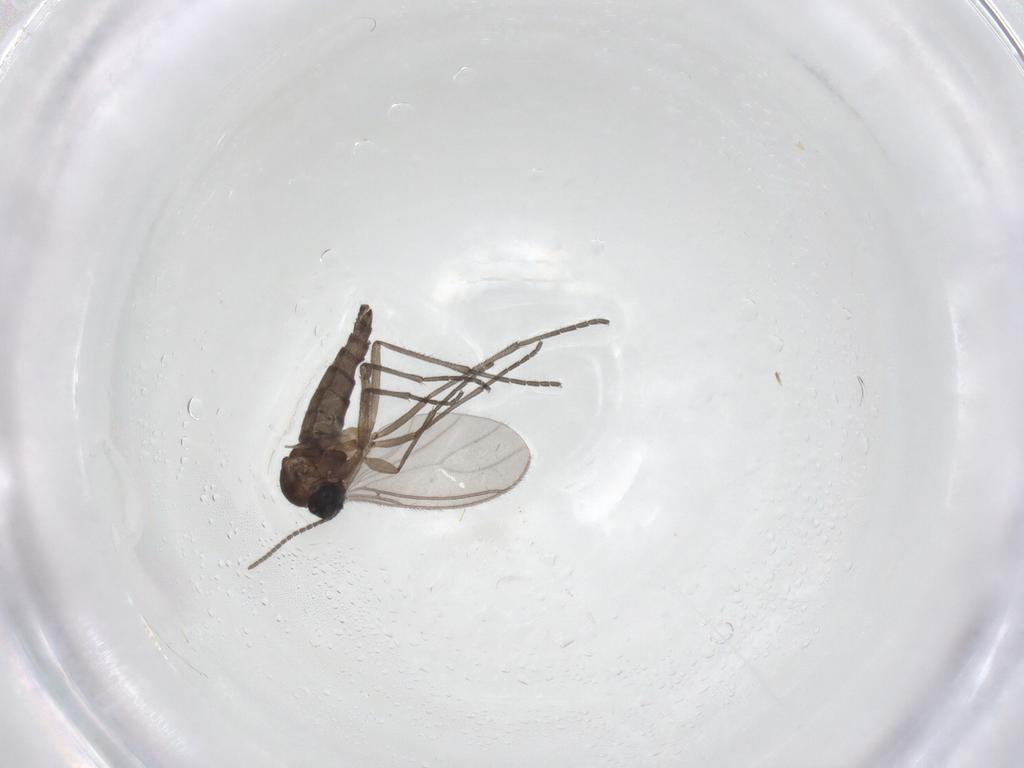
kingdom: Animalia
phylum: Arthropoda
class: Insecta
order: Diptera
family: Sciaridae
